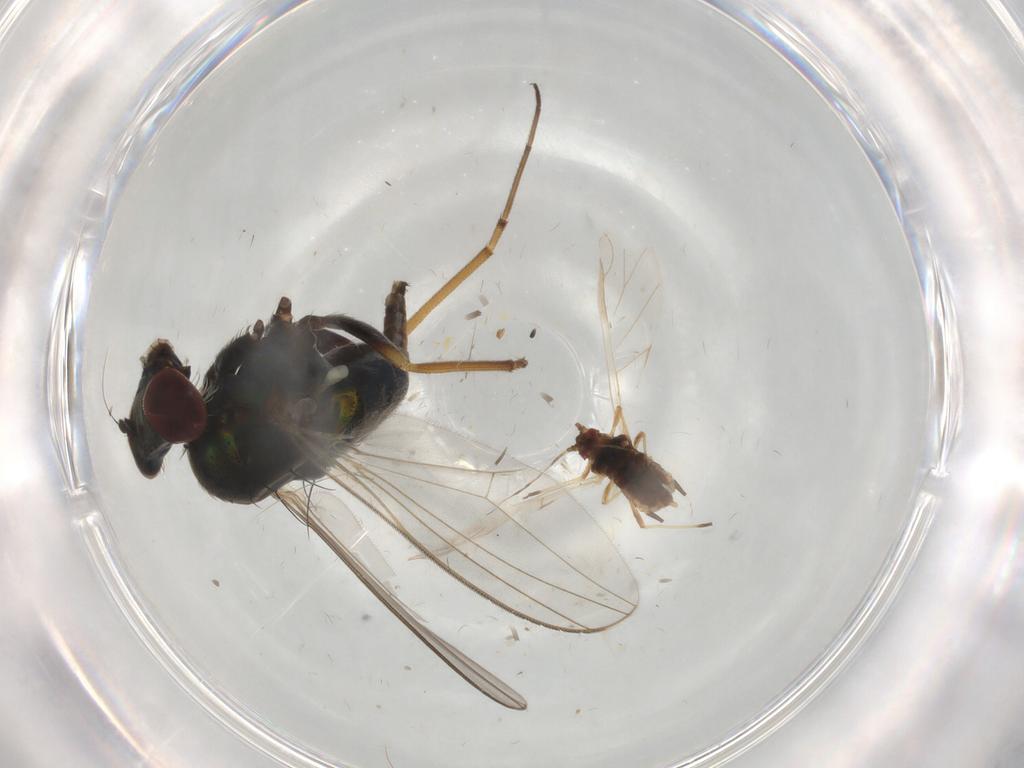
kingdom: Animalia
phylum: Arthropoda
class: Insecta
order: Diptera
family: Dolichopodidae
